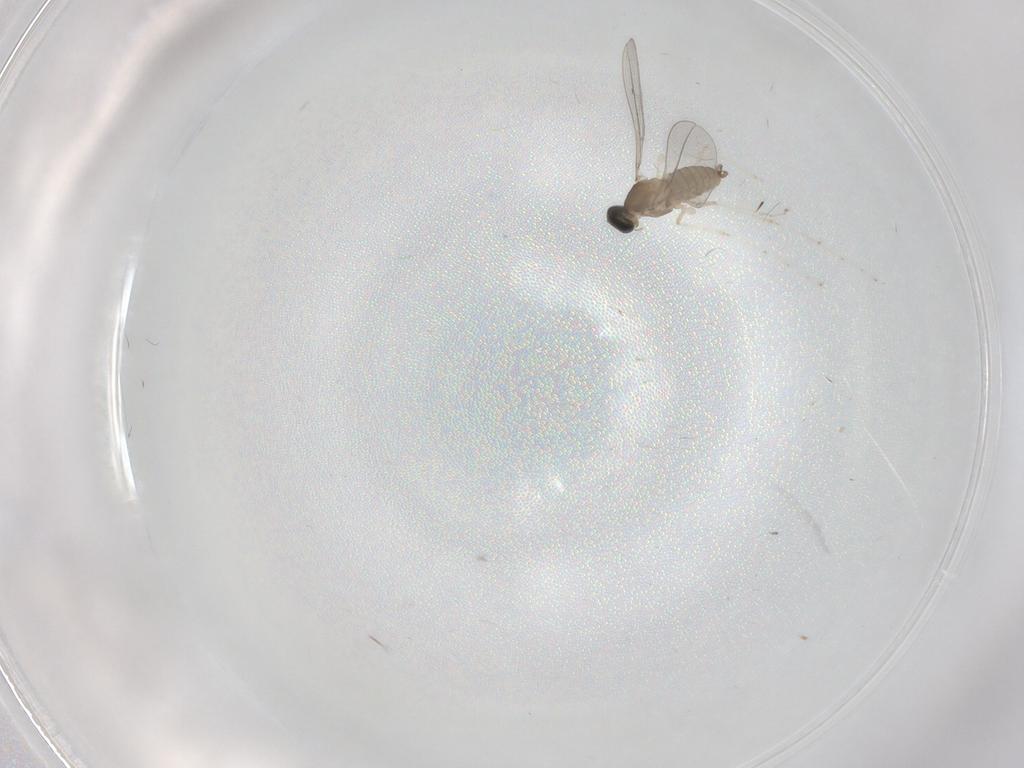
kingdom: Animalia
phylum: Arthropoda
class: Insecta
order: Diptera
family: Cecidomyiidae
